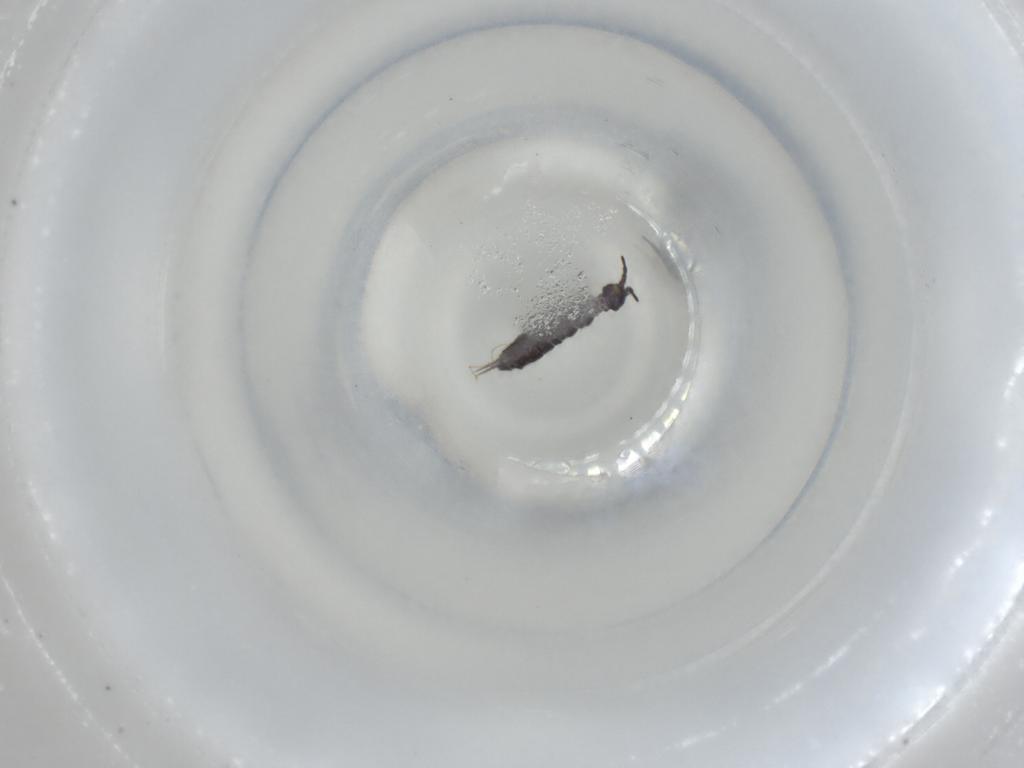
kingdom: Animalia
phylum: Arthropoda
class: Collembola
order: Entomobryomorpha
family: Isotomidae
